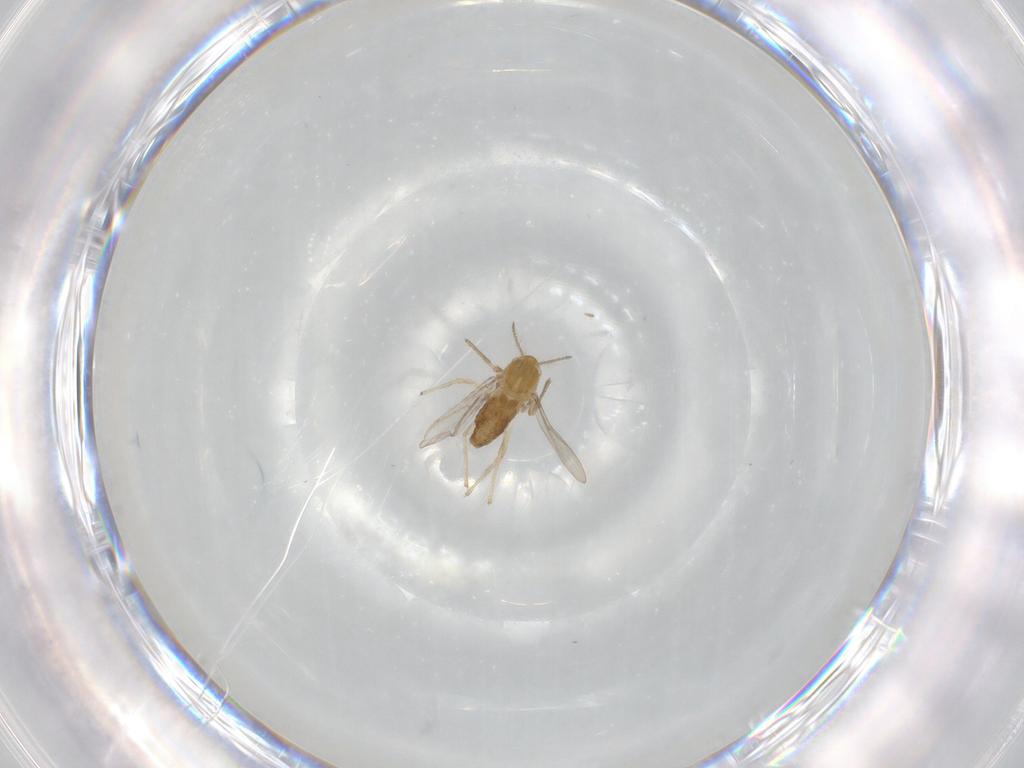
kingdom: Animalia
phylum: Arthropoda
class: Insecta
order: Diptera
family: Chironomidae
